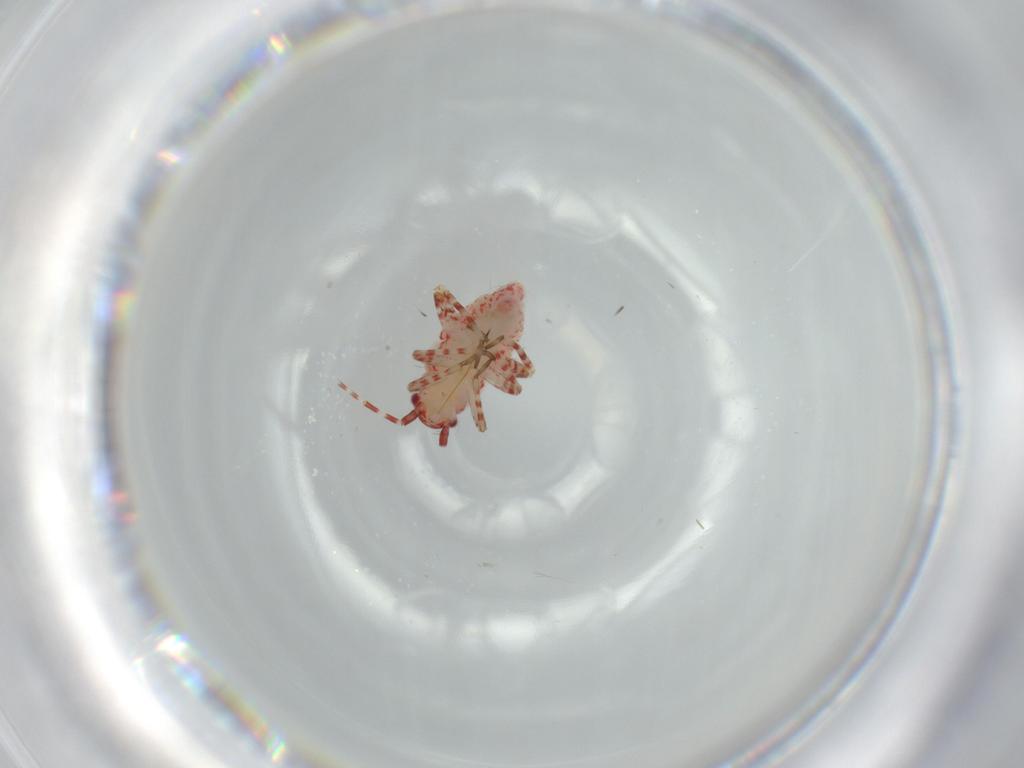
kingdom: Animalia
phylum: Arthropoda
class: Insecta
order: Hemiptera
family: Miridae
